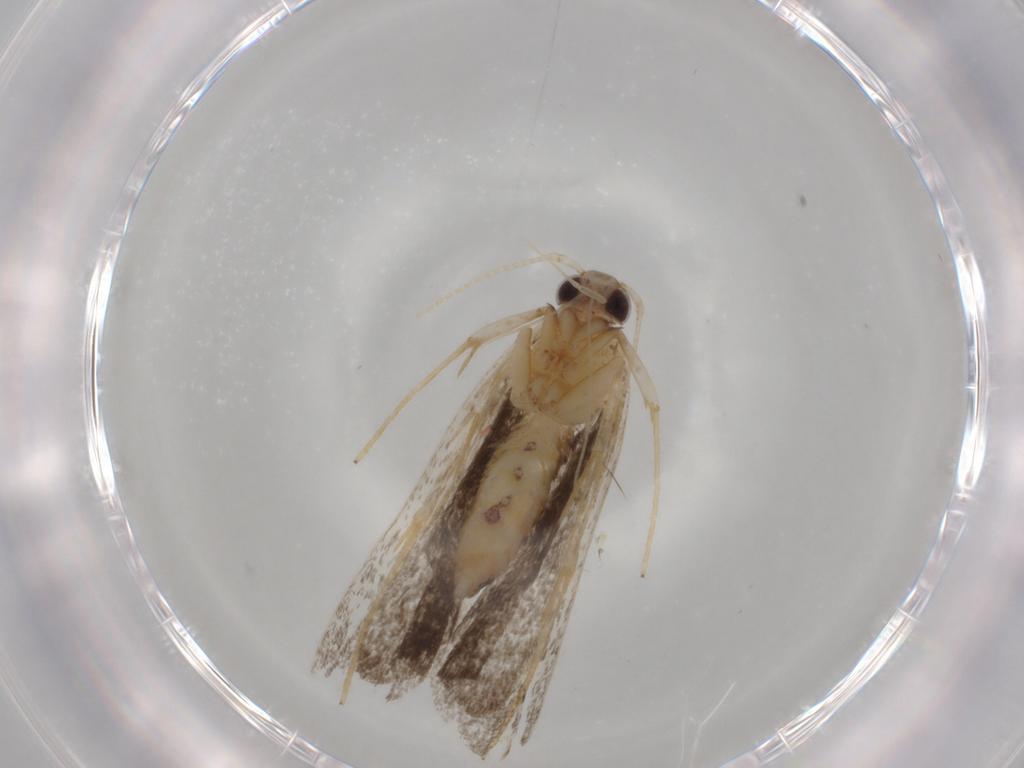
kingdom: Animalia
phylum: Arthropoda
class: Insecta
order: Lepidoptera
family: Cosmopterigidae
